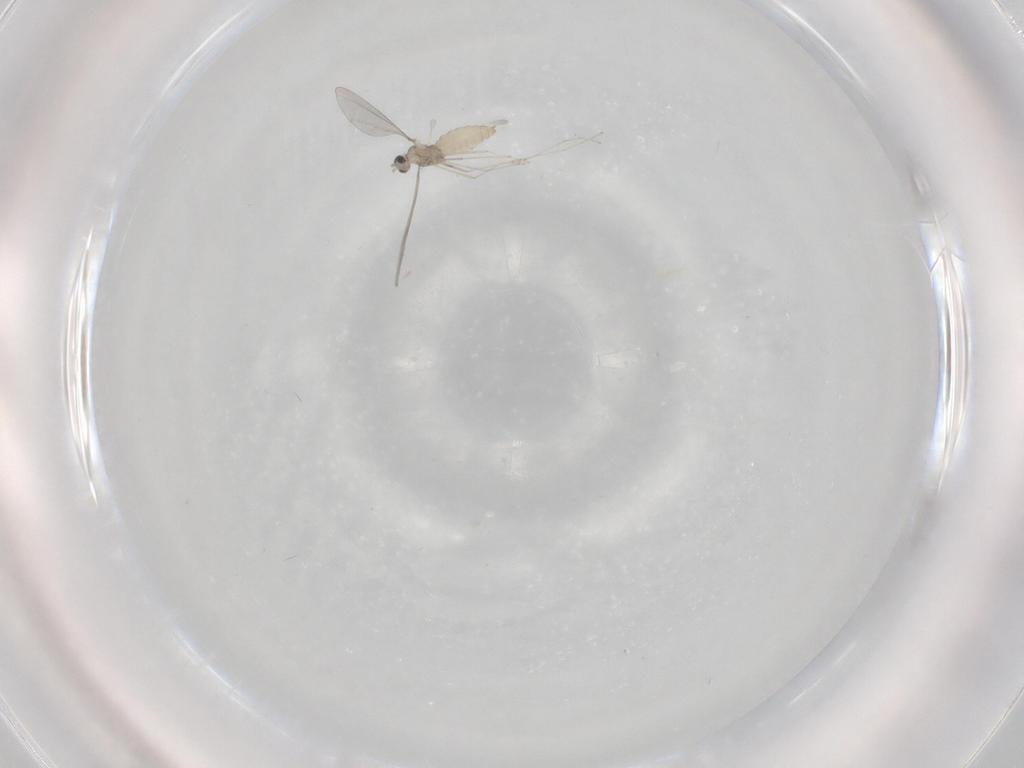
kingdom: Animalia
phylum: Arthropoda
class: Insecta
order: Diptera
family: Cecidomyiidae
